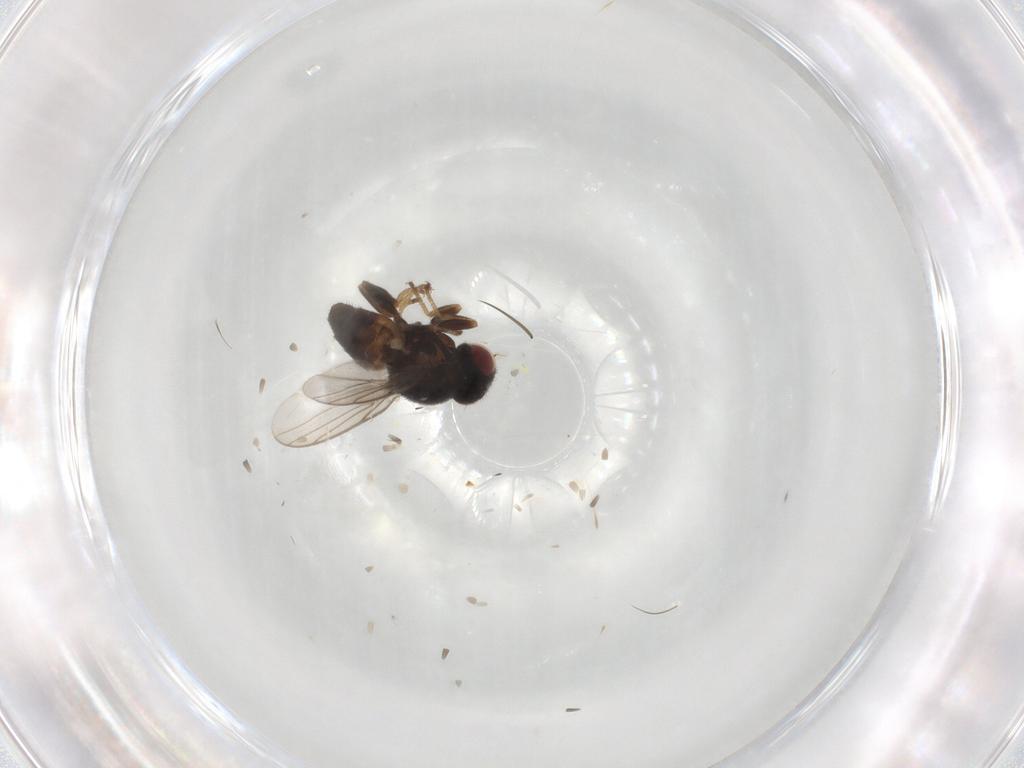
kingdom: Animalia
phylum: Arthropoda
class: Insecta
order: Diptera
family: Chloropidae
